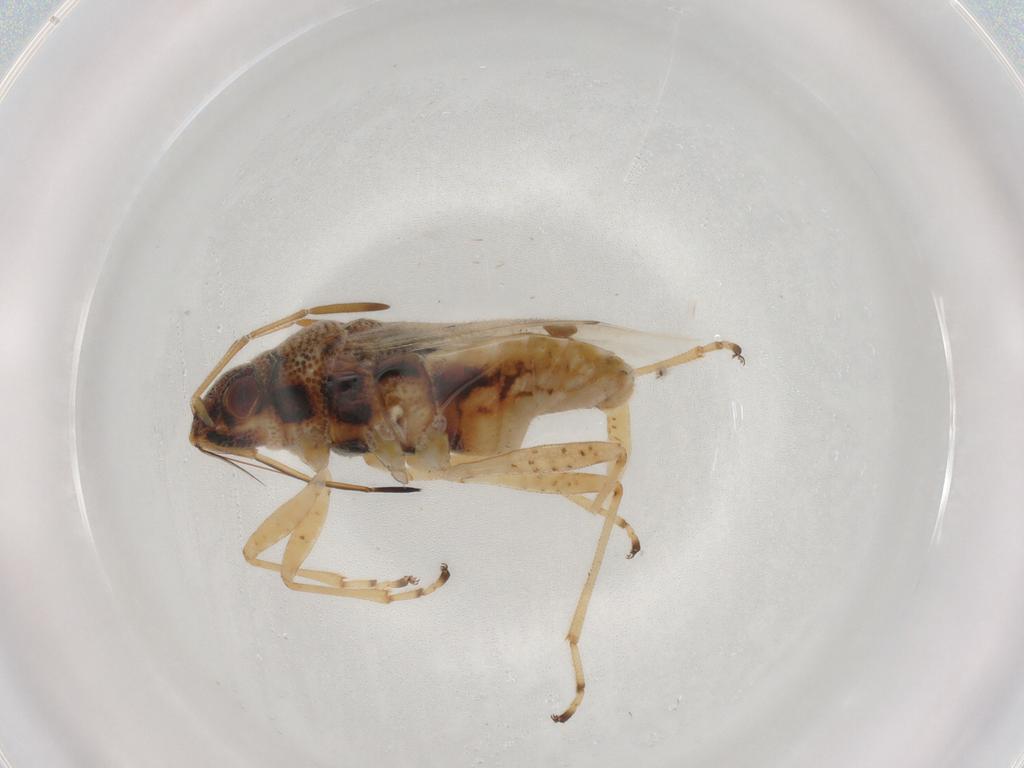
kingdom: Animalia
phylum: Arthropoda
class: Insecta
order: Hemiptera
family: Lygaeidae
